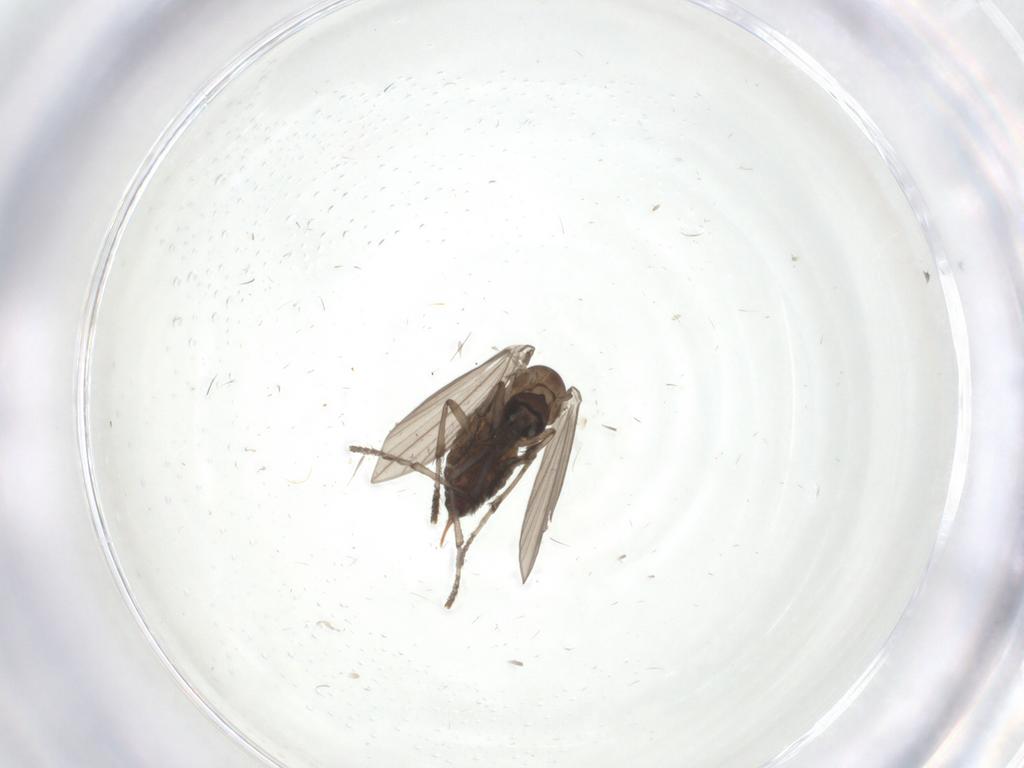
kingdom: Animalia
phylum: Arthropoda
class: Insecta
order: Diptera
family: Psychodidae
